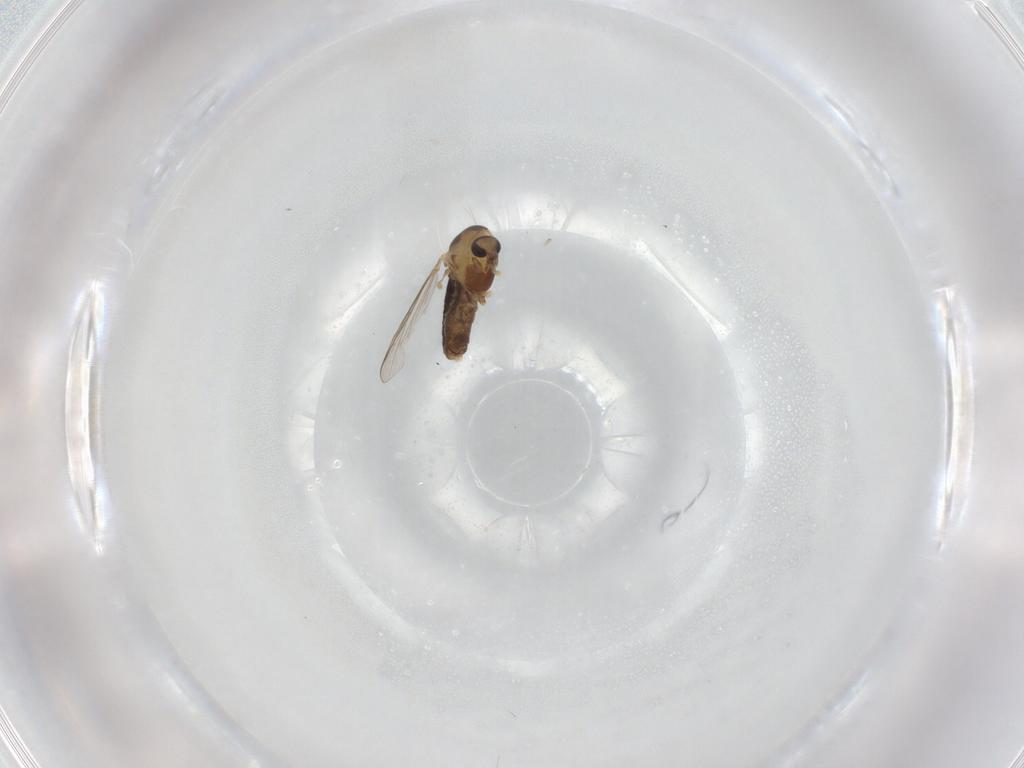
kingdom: Animalia
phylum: Arthropoda
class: Insecta
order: Diptera
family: Chironomidae
